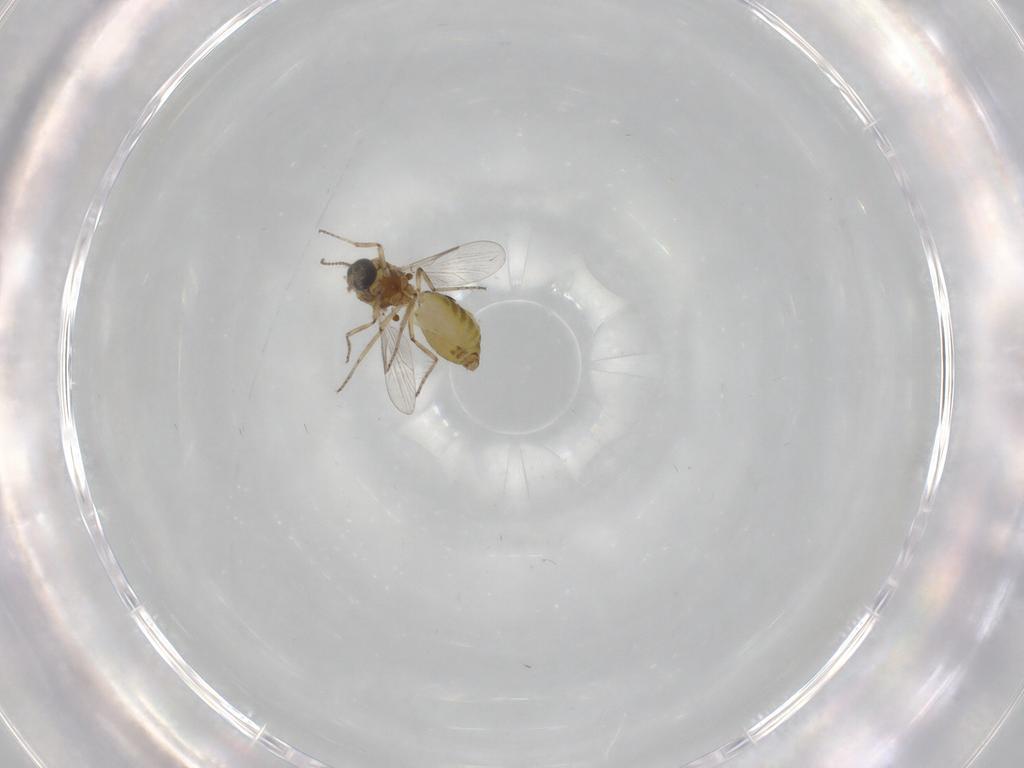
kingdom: Animalia
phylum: Arthropoda
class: Insecta
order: Diptera
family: Ceratopogonidae
